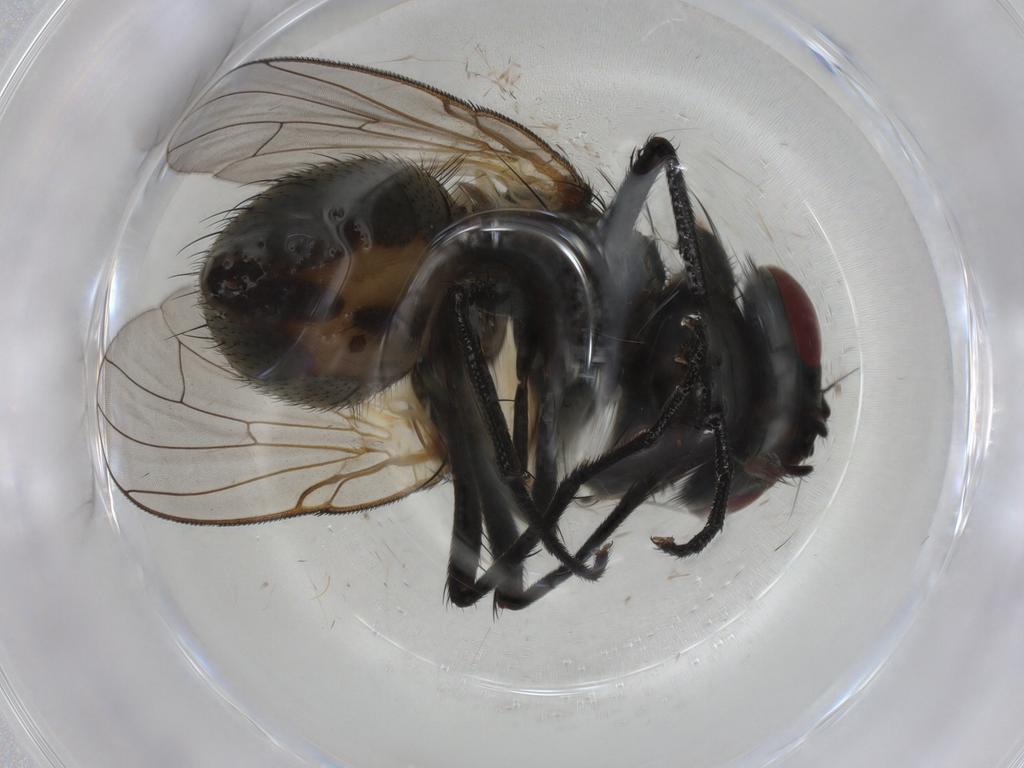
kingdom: Animalia
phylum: Arthropoda
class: Insecta
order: Diptera
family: Muscidae
